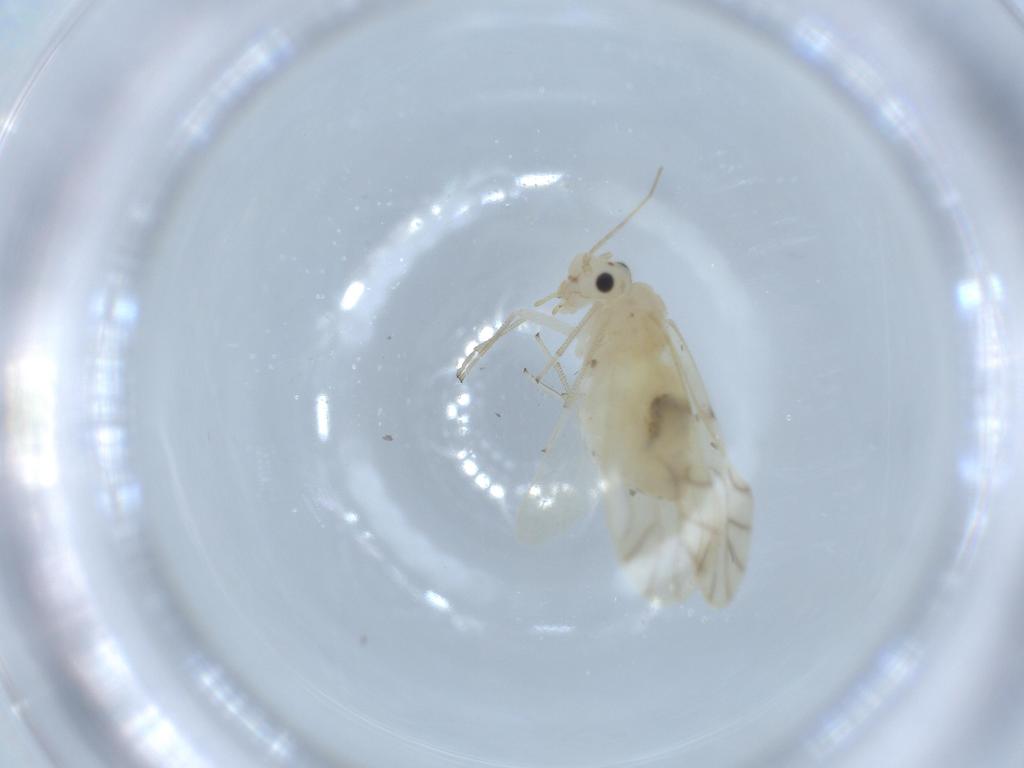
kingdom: Animalia
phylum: Arthropoda
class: Insecta
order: Psocodea
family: Caeciliusidae
